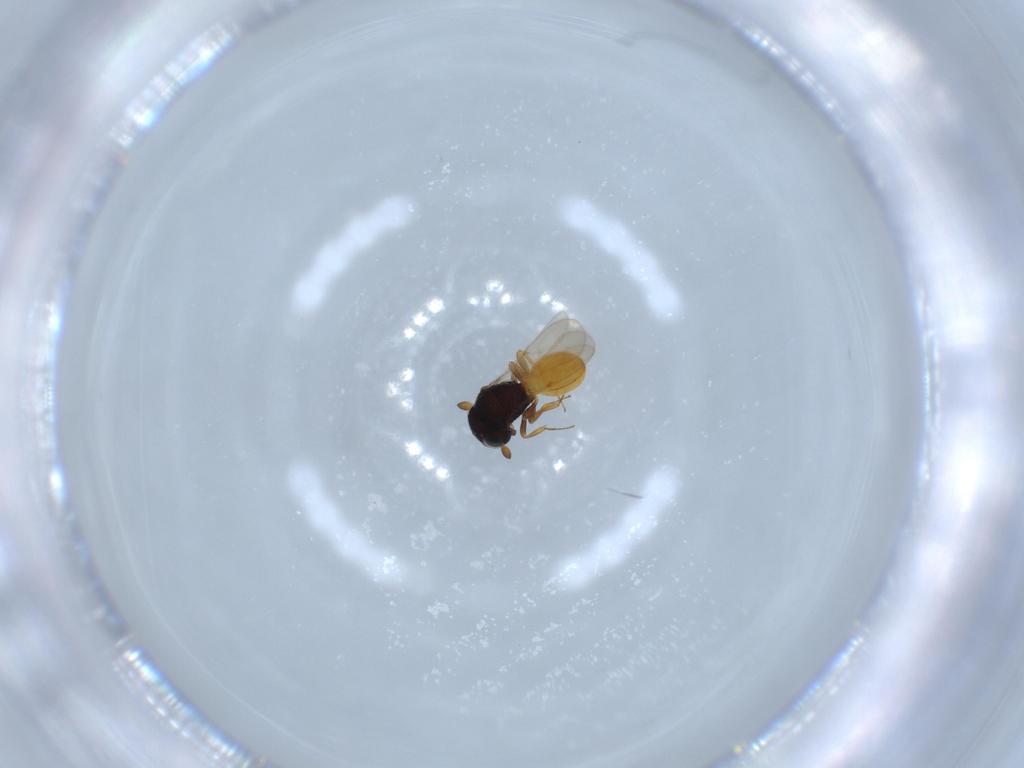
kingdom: Animalia
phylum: Arthropoda
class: Insecta
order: Hymenoptera
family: Scelionidae
